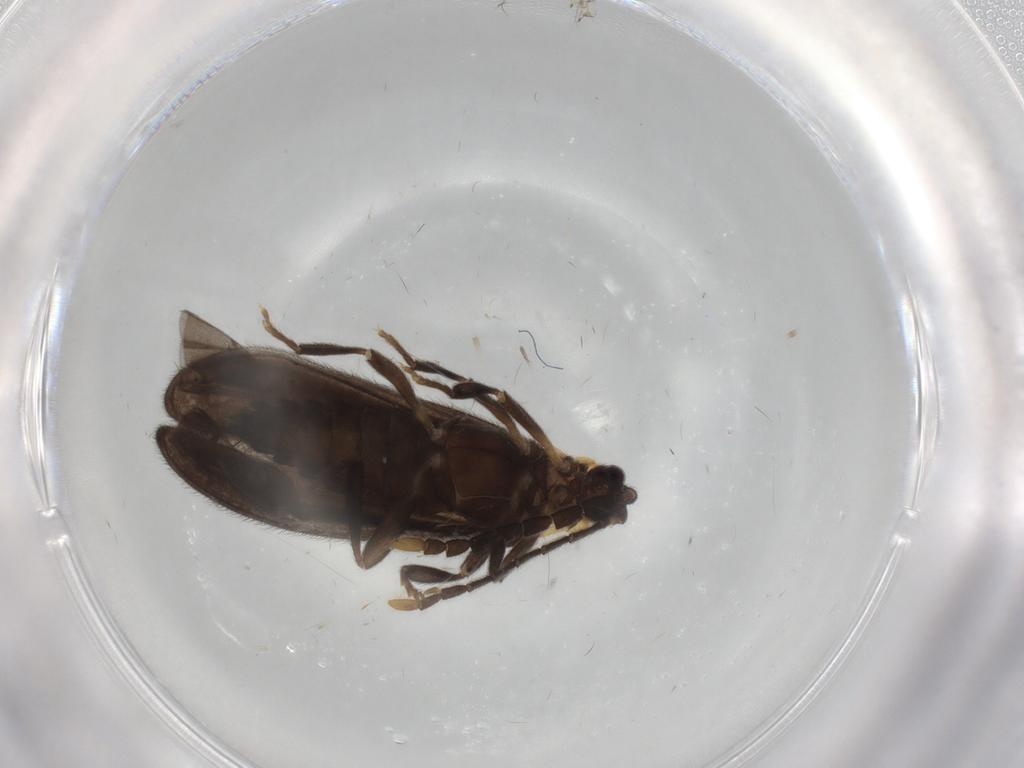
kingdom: Animalia
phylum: Arthropoda
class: Insecta
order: Coleoptera
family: Lycidae
